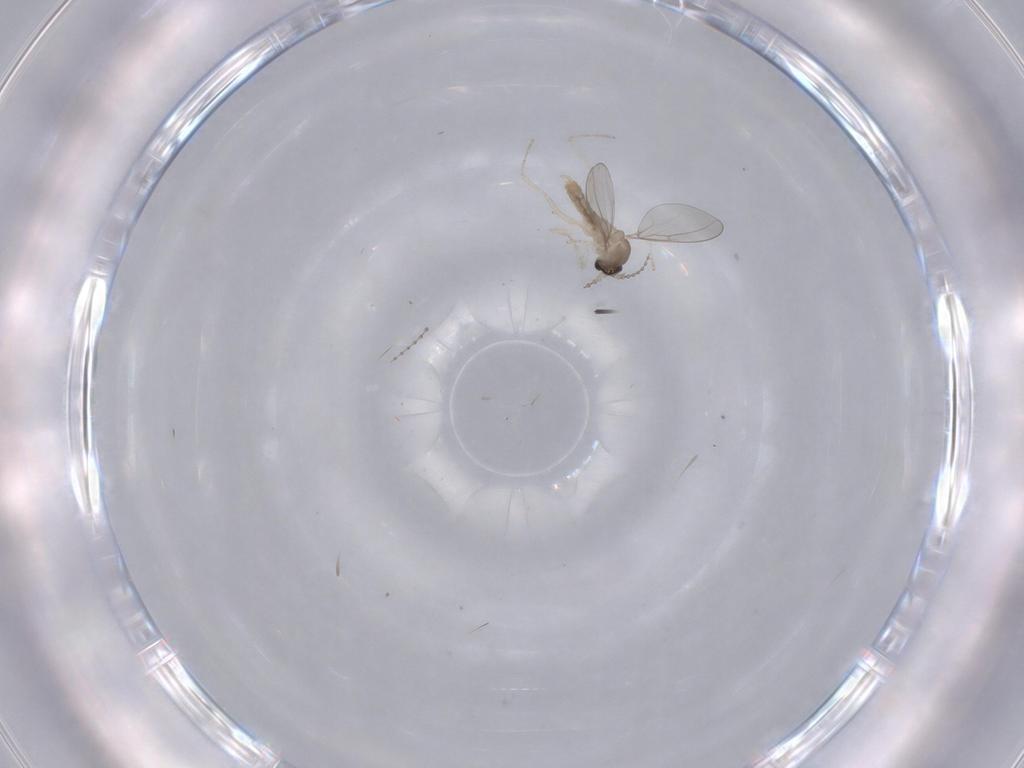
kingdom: Animalia
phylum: Arthropoda
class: Insecta
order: Diptera
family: Cecidomyiidae
